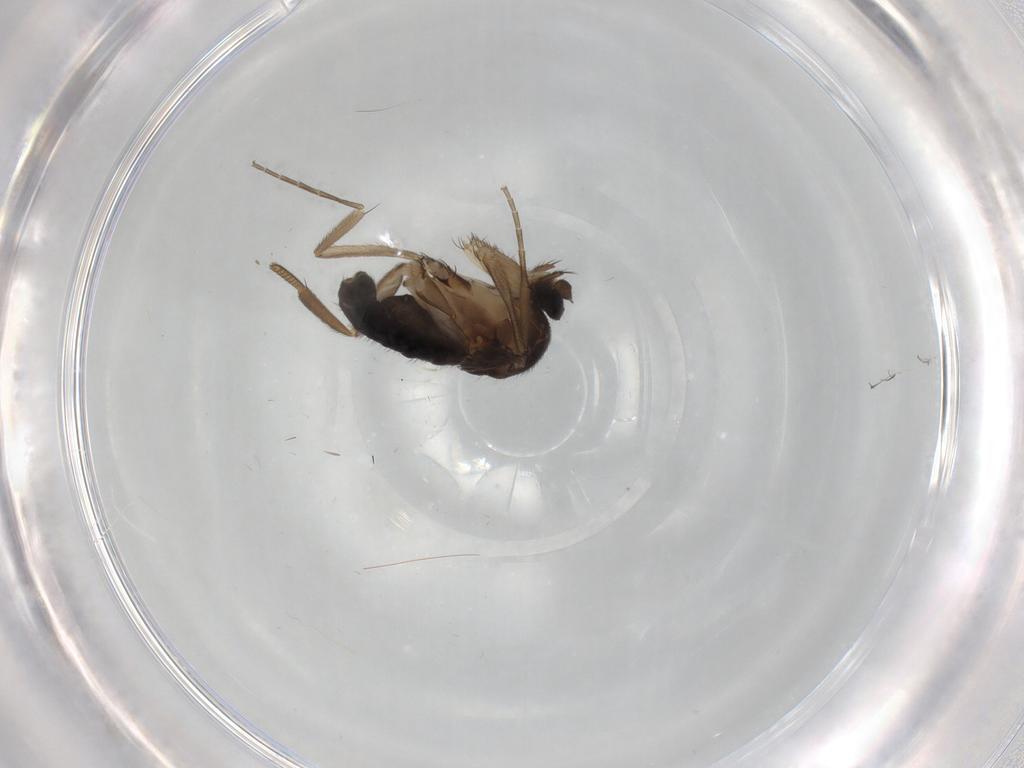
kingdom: Animalia
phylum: Arthropoda
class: Insecta
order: Diptera
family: Phoridae
